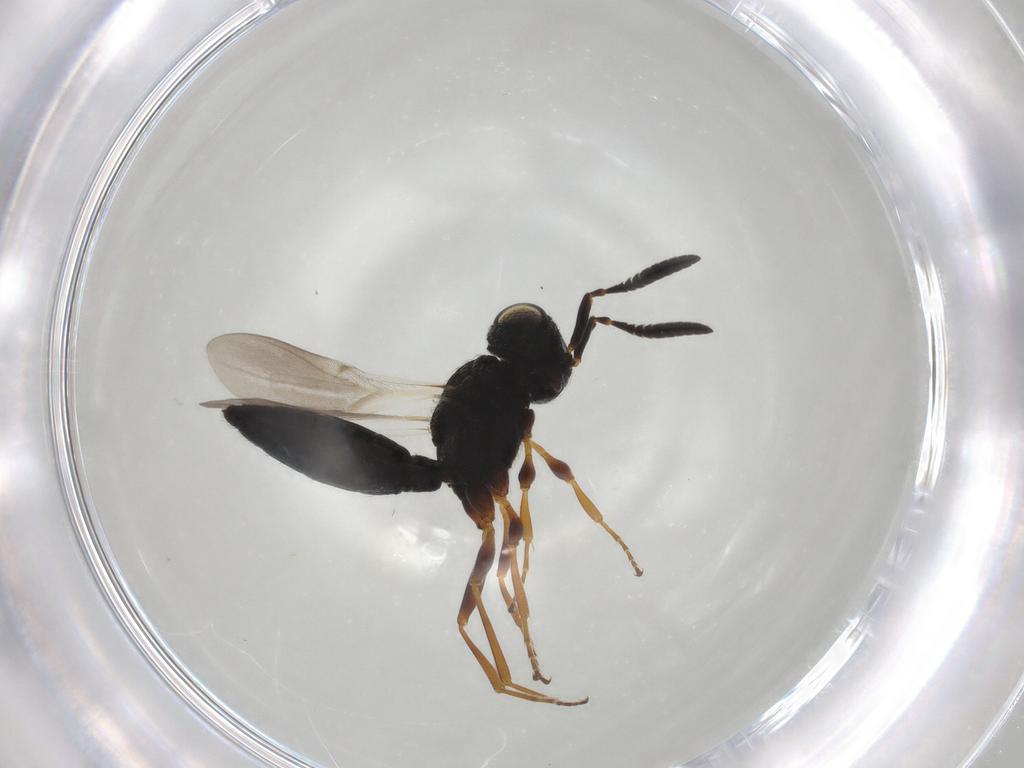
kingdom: Animalia
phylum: Arthropoda
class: Insecta
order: Hymenoptera
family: Scelionidae
